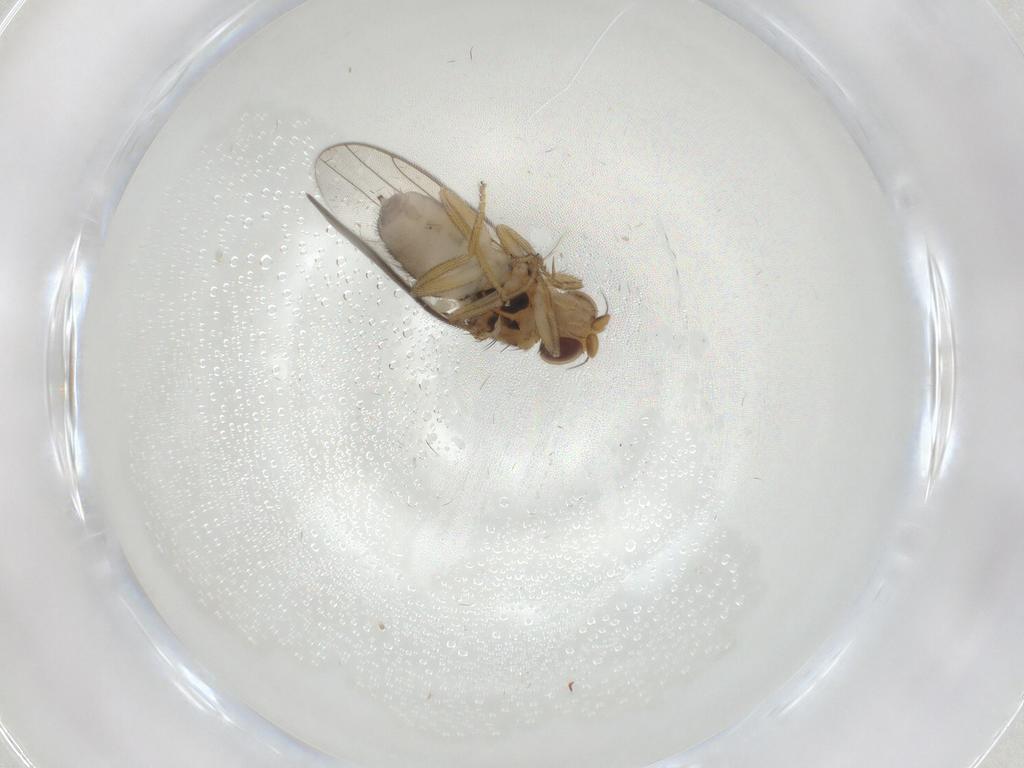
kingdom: Animalia
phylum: Arthropoda
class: Insecta
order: Diptera
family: Chloropidae
